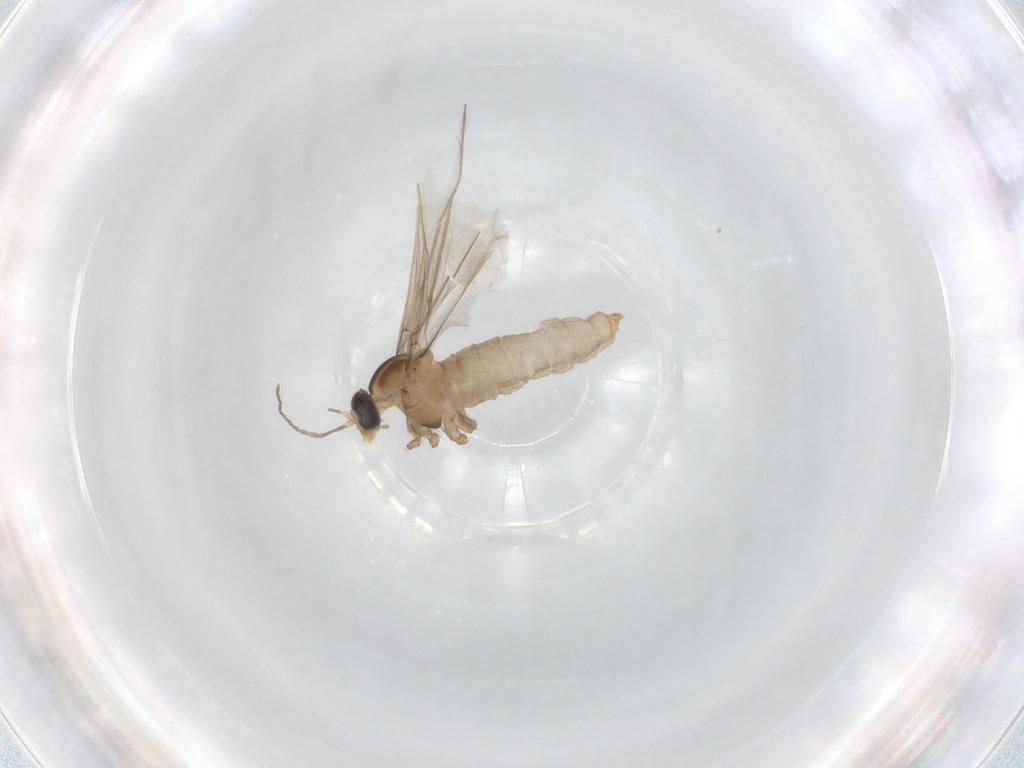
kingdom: Animalia
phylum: Arthropoda
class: Insecta
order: Diptera
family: Cecidomyiidae
